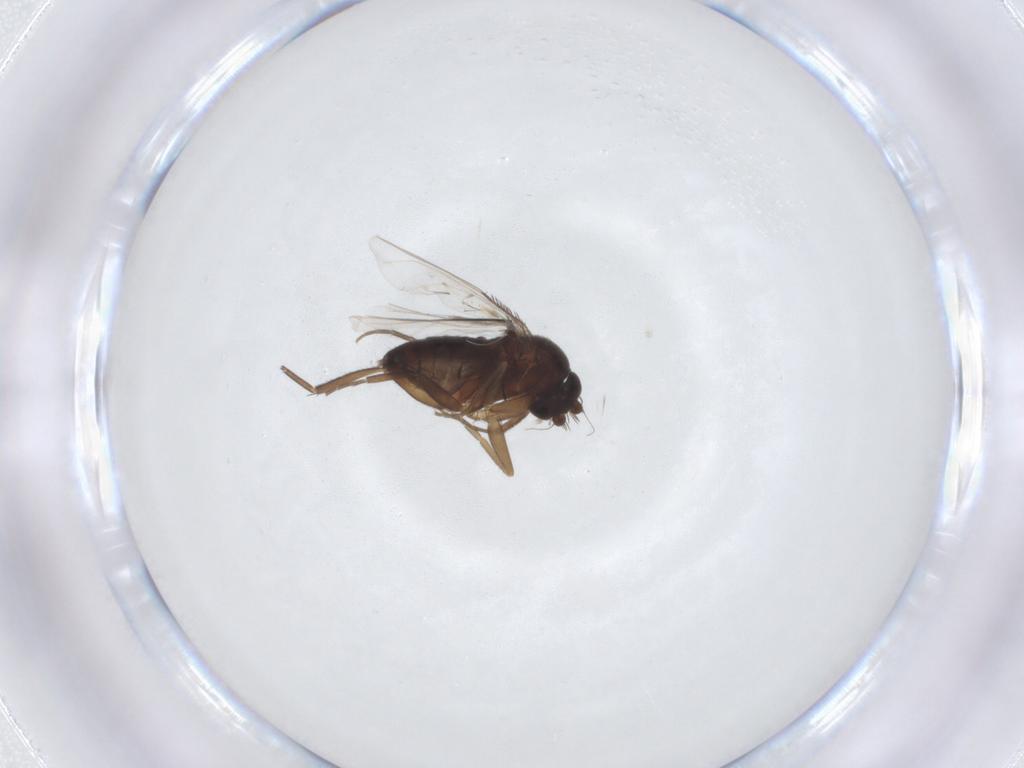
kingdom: Animalia
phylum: Arthropoda
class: Insecta
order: Diptera
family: Phoridae
